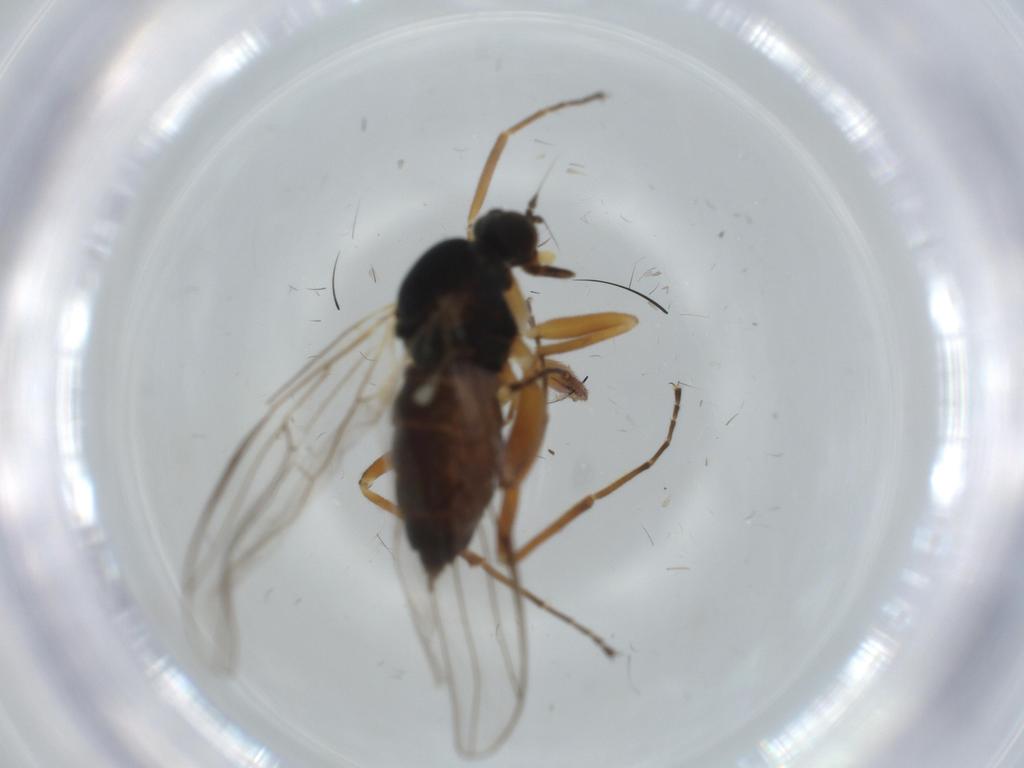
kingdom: Animalia
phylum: Arthropoda
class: Insecta
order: Diptera
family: Hybotidae
